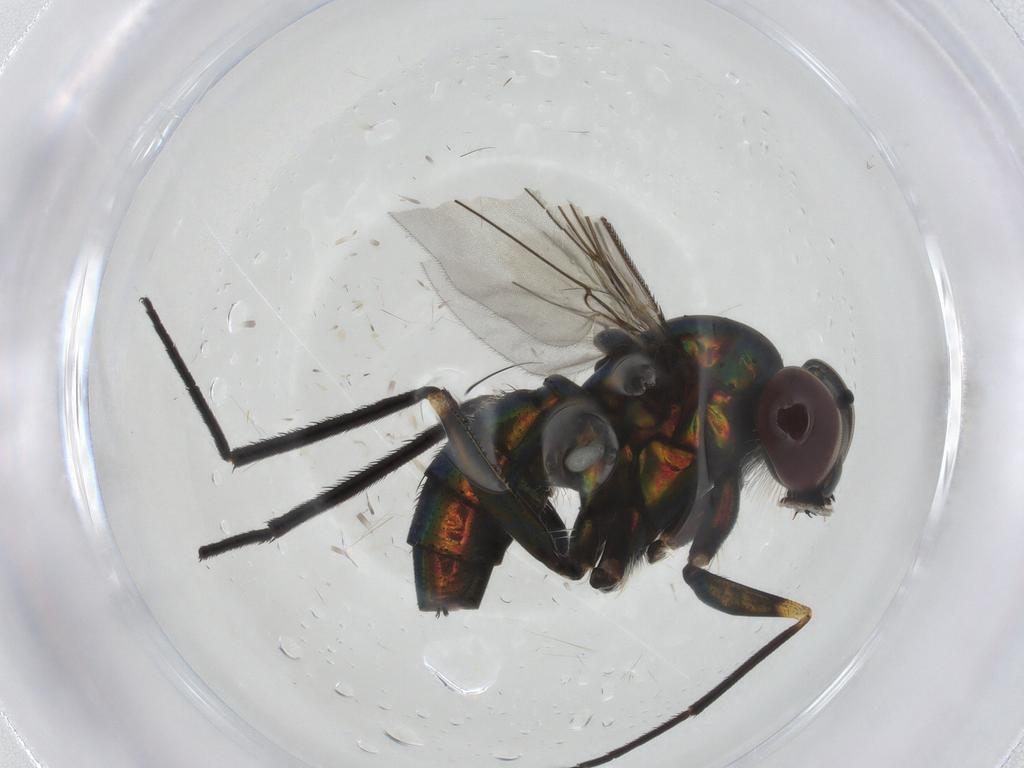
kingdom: Animalia
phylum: Arthropoda
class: Insecta
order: Diptera
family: Dolichopodidae
